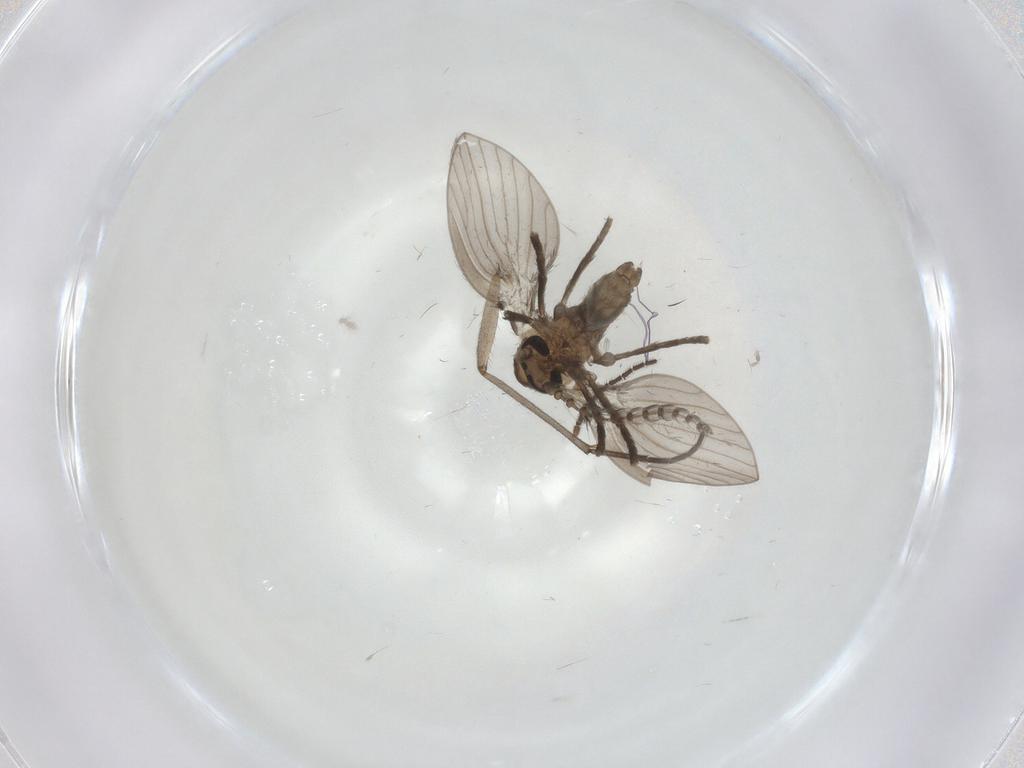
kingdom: Animalia
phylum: Arthropoda
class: Insecta
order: Diptera
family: Psychodidae
